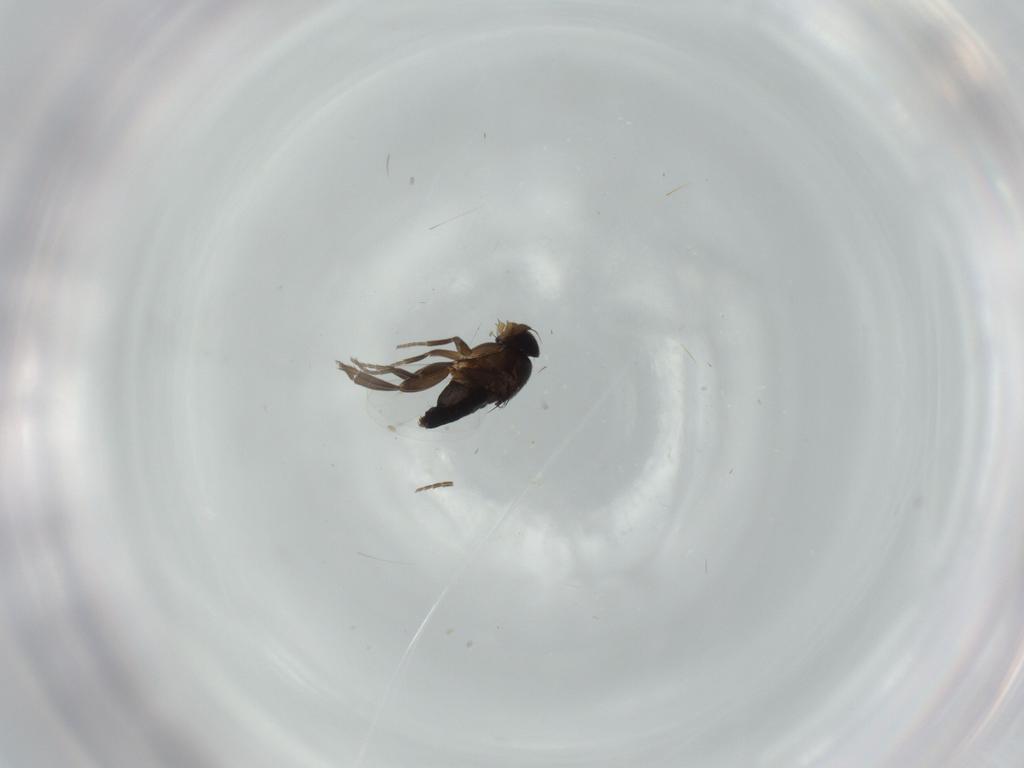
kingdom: Animalia
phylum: Arthropoda
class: Insecta
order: Diptera
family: Phoridae
